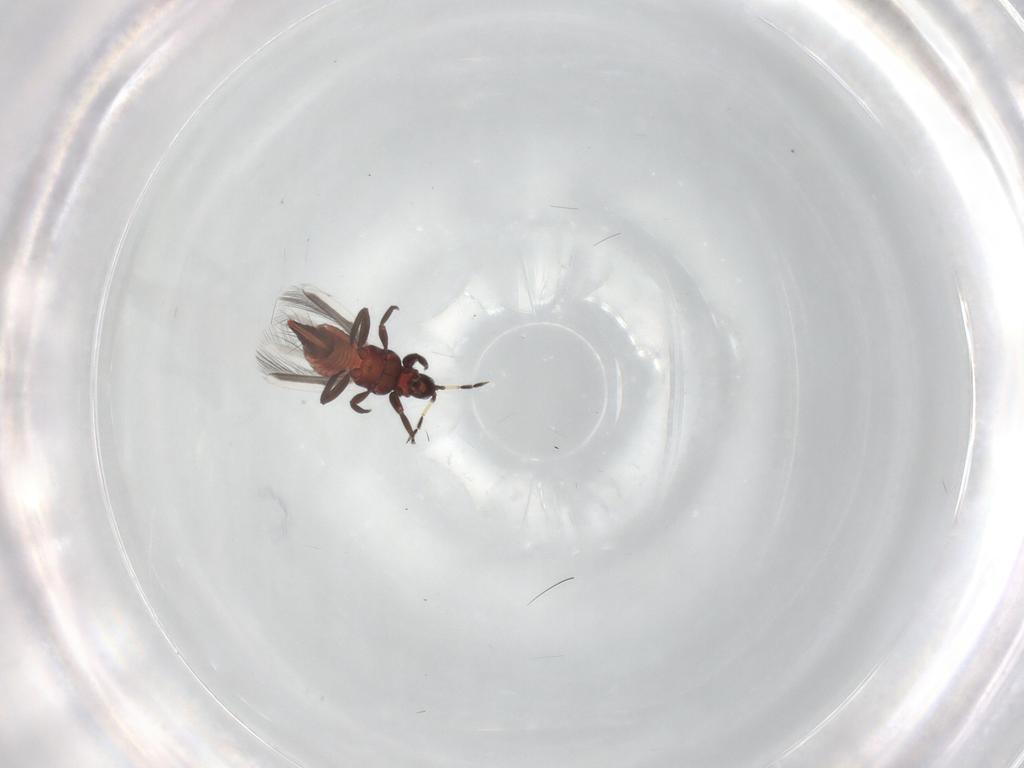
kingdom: Animalia
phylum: Arthropoda
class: Insecta
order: Thysanoptera
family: Aeolothripidae
